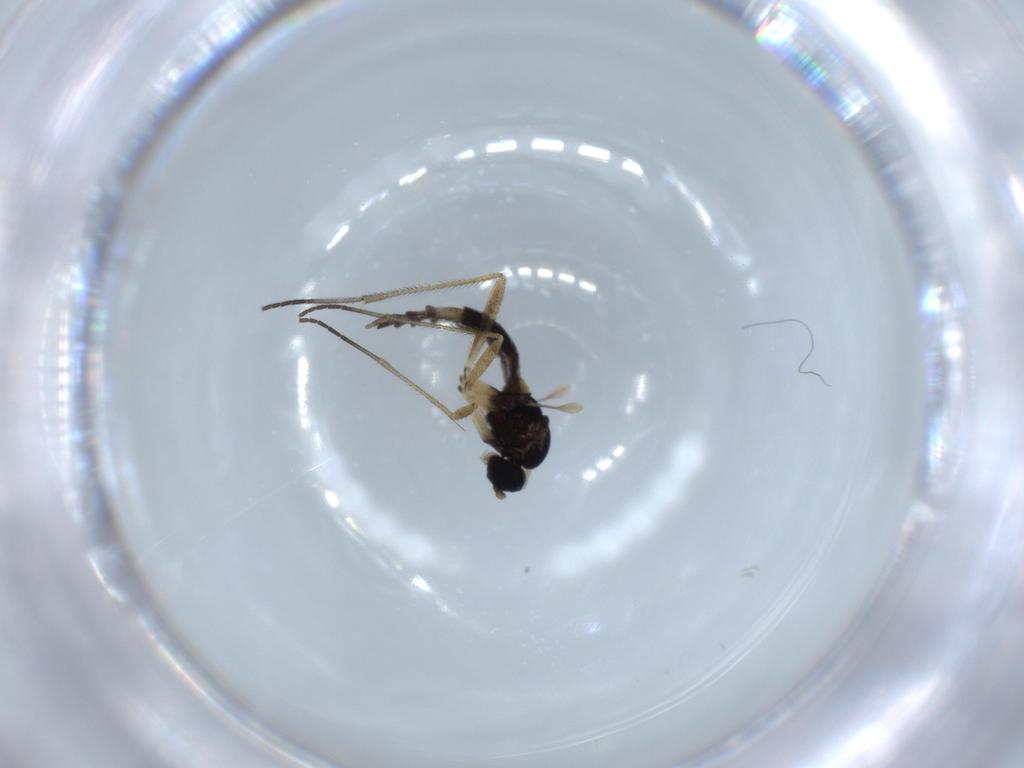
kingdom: Animalia
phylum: Arthropoda
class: Insecta
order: Diptera
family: Sciaridae
